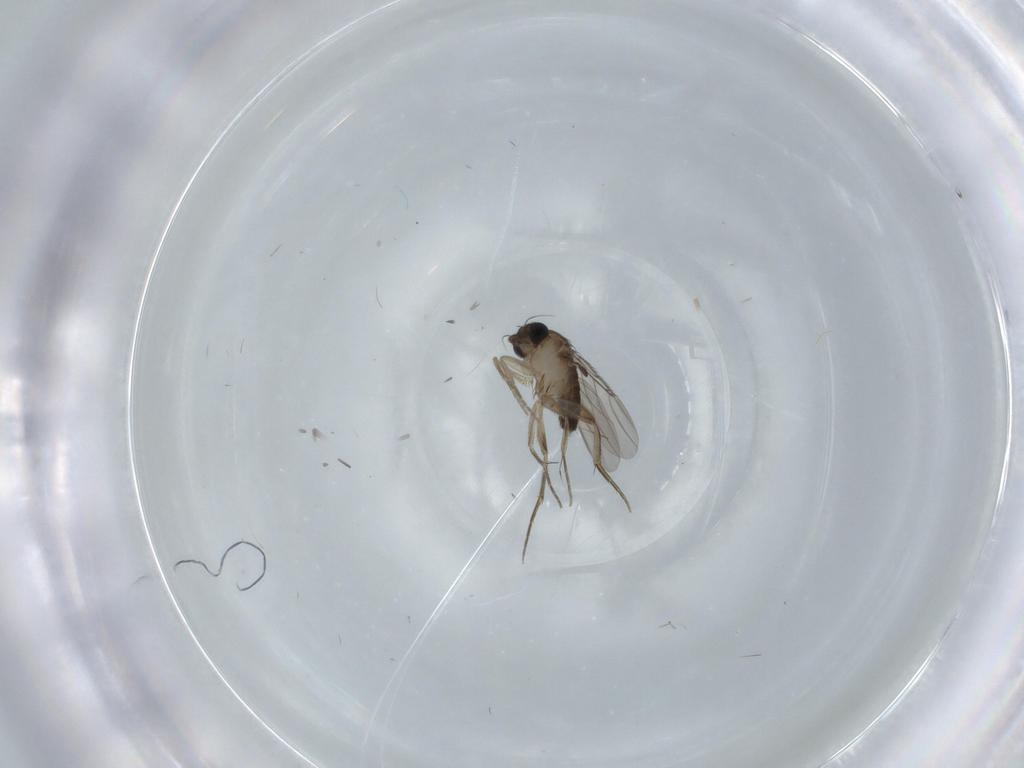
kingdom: Animalia
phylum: Arthropoda
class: Insecta
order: Diptera
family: Phoridae
